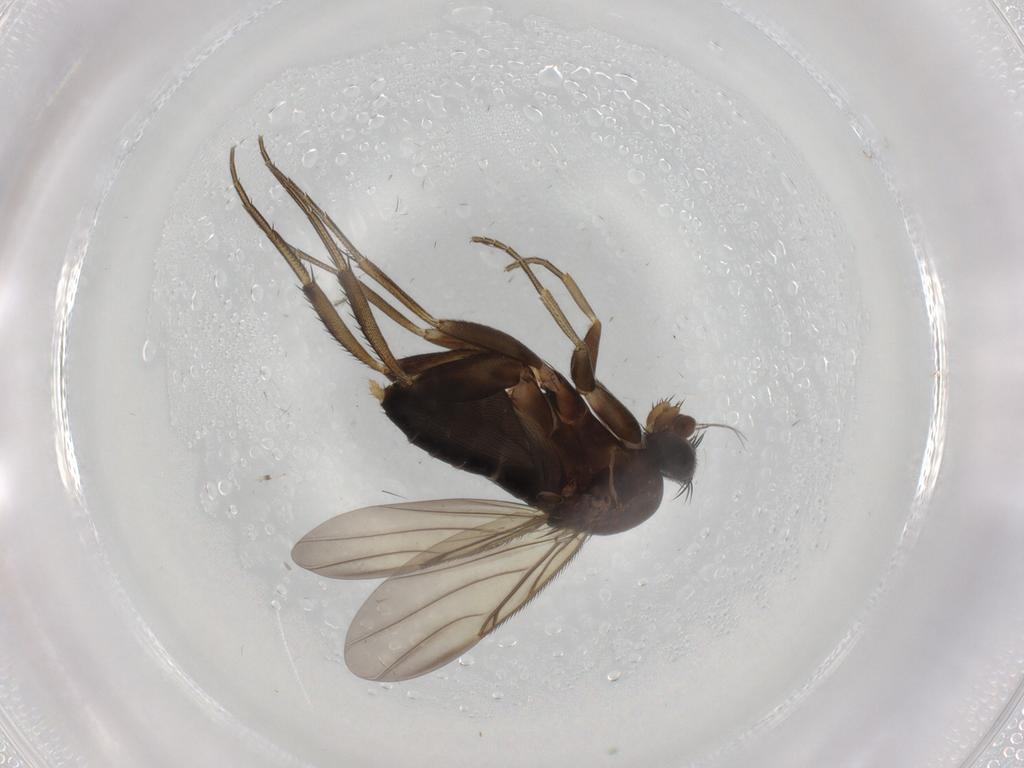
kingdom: Animalia
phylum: Arthropoda
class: Insecta
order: Diptera
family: Phoridae
